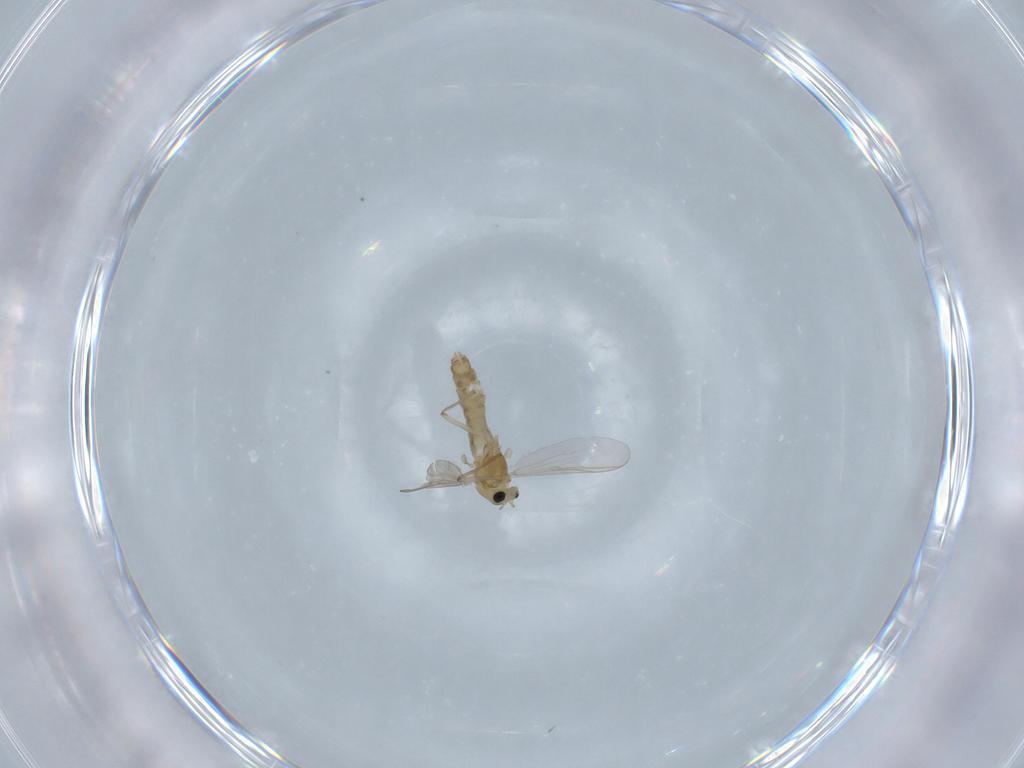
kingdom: Animalia
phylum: Arthropoda
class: Insecta
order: Diptera
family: Chironomidae
